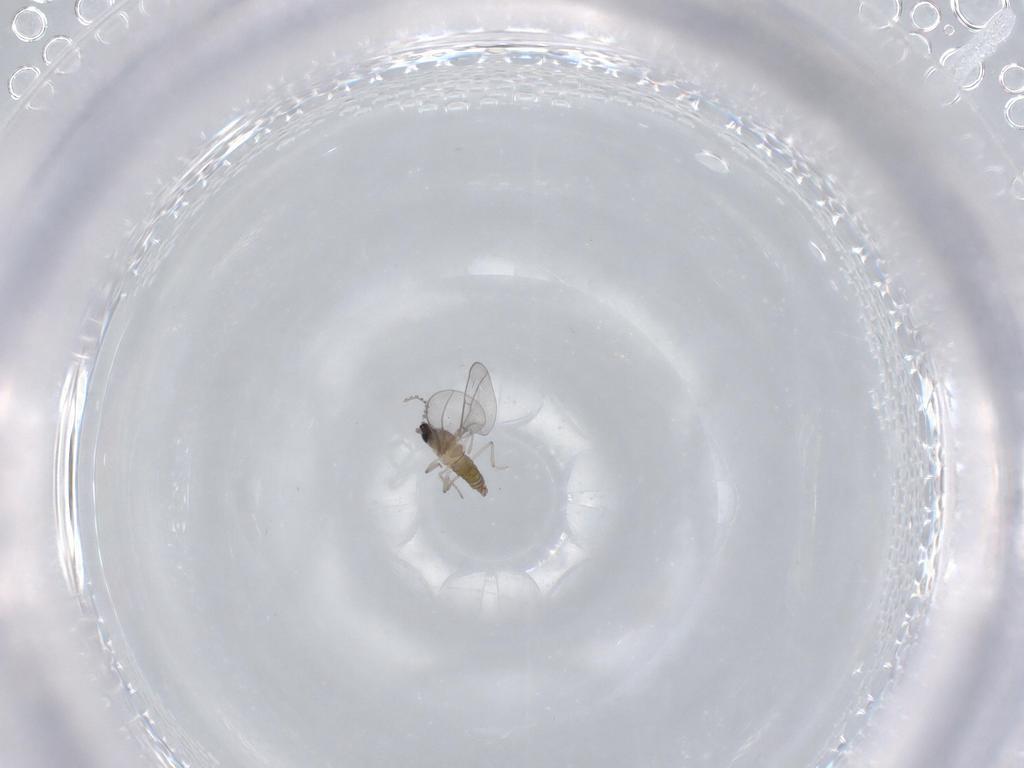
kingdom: Animalia
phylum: Arthropoda
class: Insecta
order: Diptera
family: Cecidomyiidae
